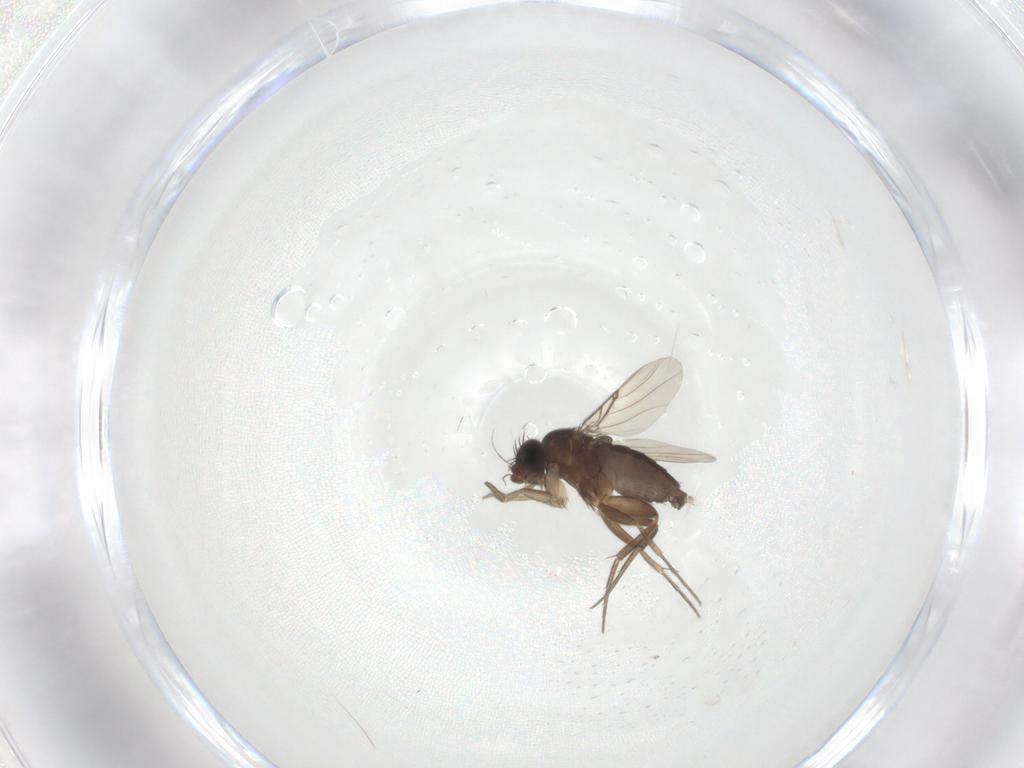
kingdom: Animalia
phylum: Arthropoda
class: Insecta
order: Diptera
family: Phoridae
